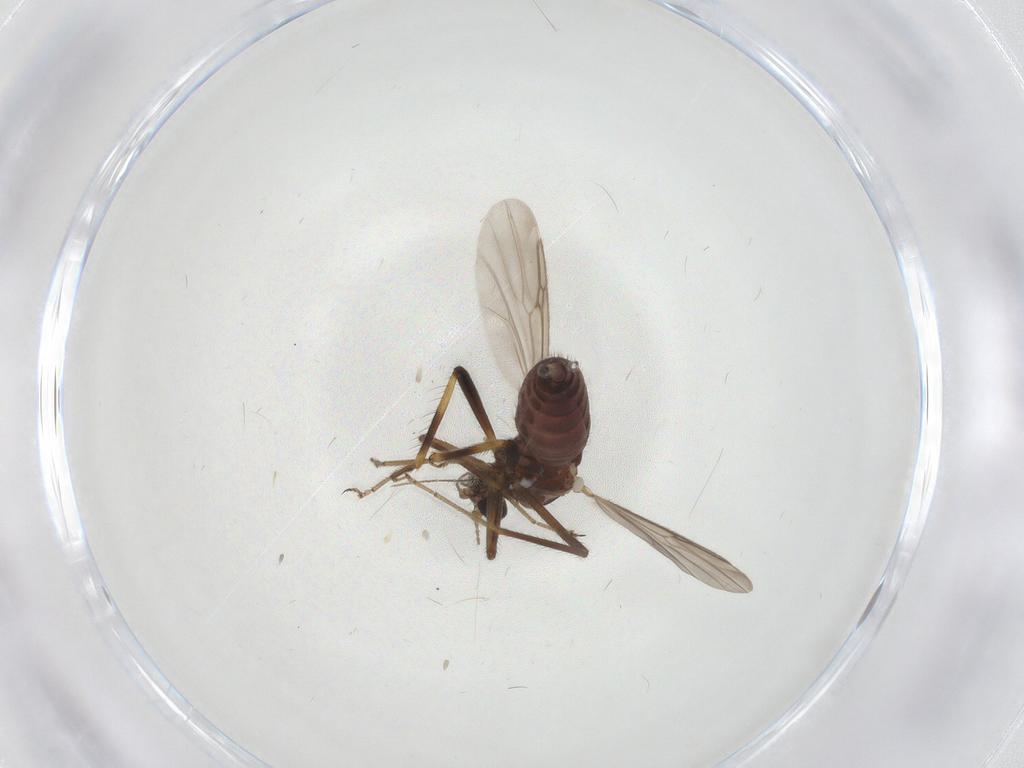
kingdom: Animalia
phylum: Arthropoda
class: Insecta
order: Diptera
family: Ceratopogonidae
